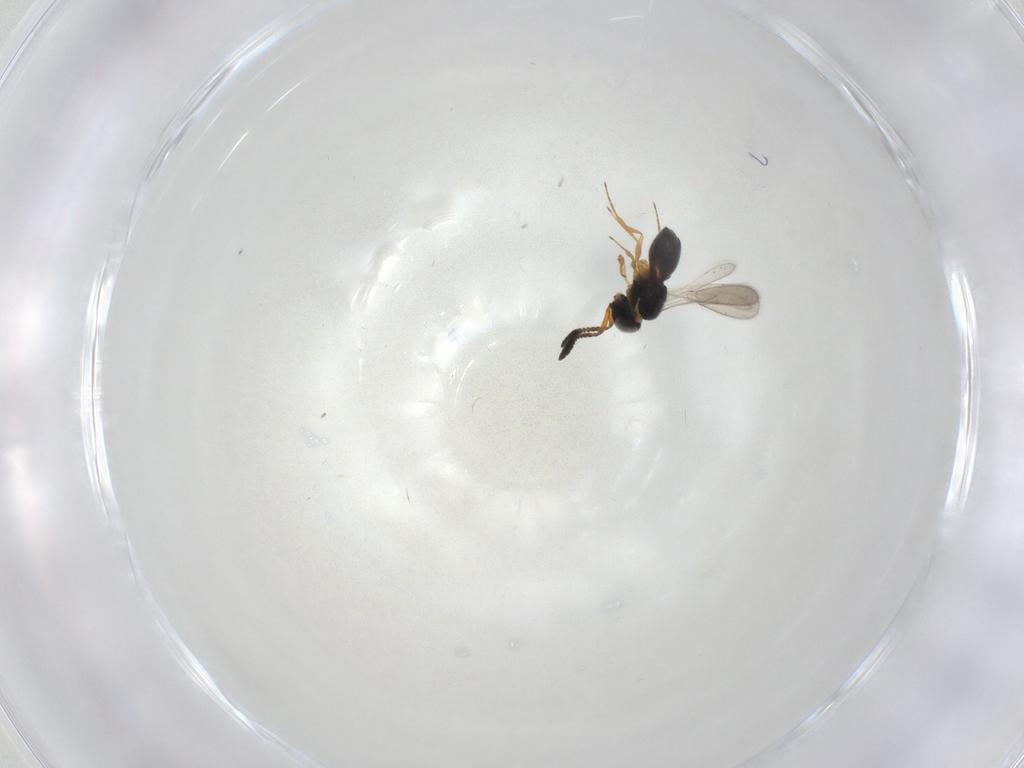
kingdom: Animalia
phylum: Arthropoda
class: Insecta
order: Hymenoptera
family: Scelionidae
